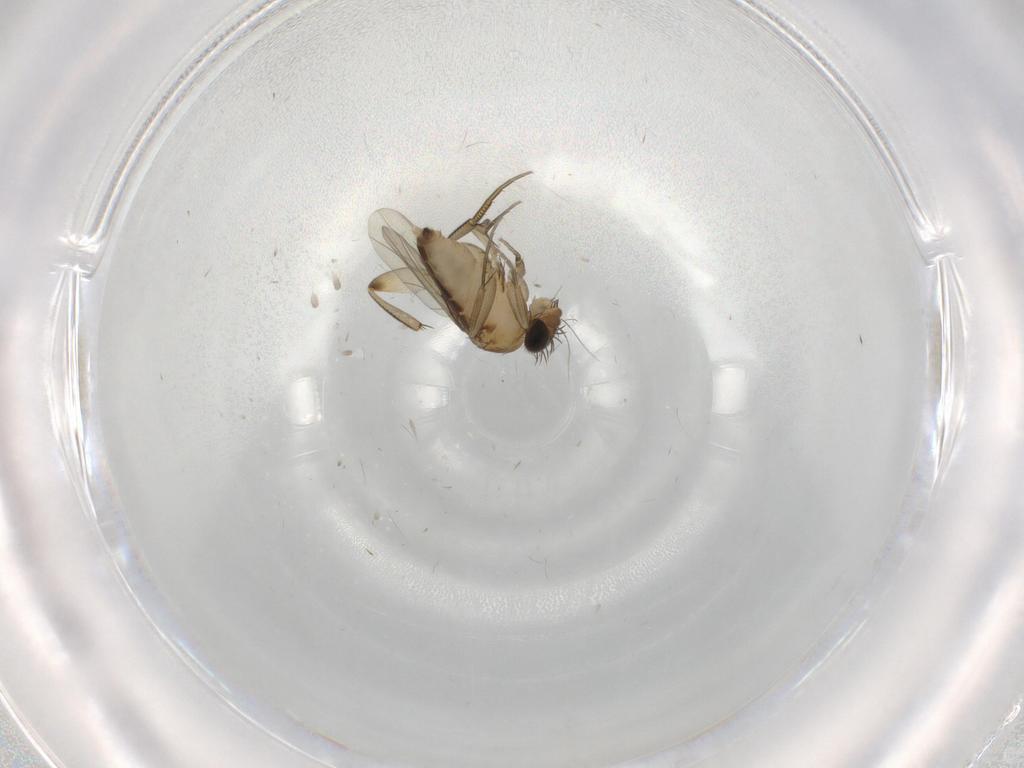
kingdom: Animalia
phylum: Arthropoda
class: Insecta
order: Diptera
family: Phoridae
